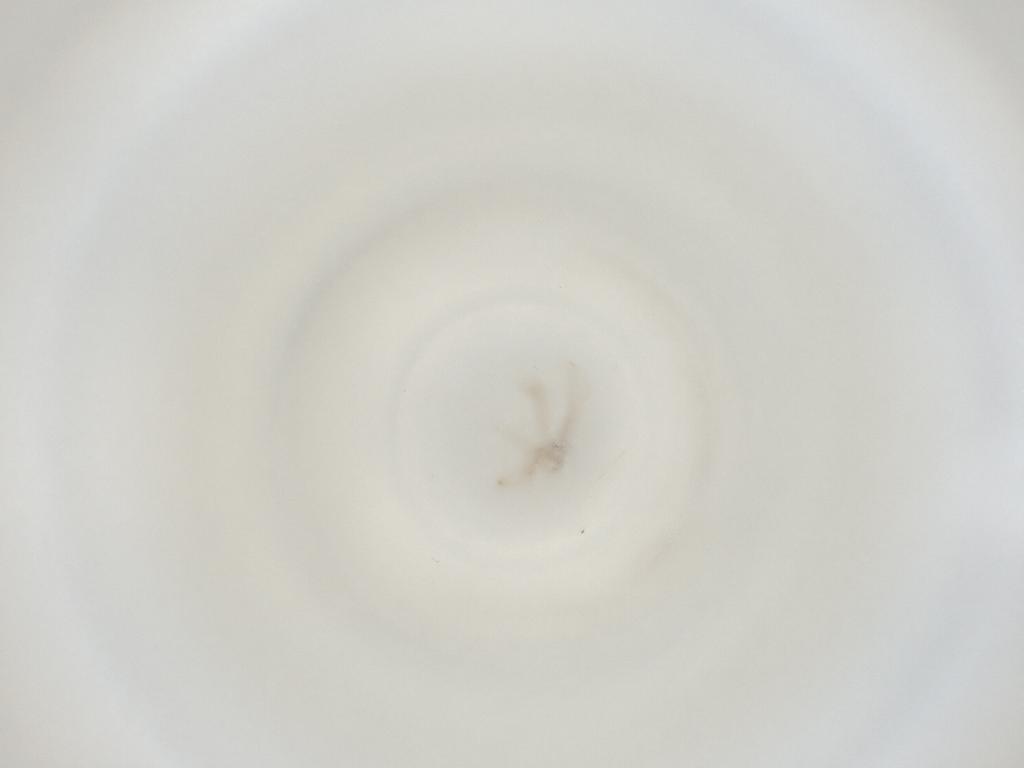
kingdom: Animalia
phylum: Arthropoda
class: Insecta
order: Diptera
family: Cecidomyiidae
